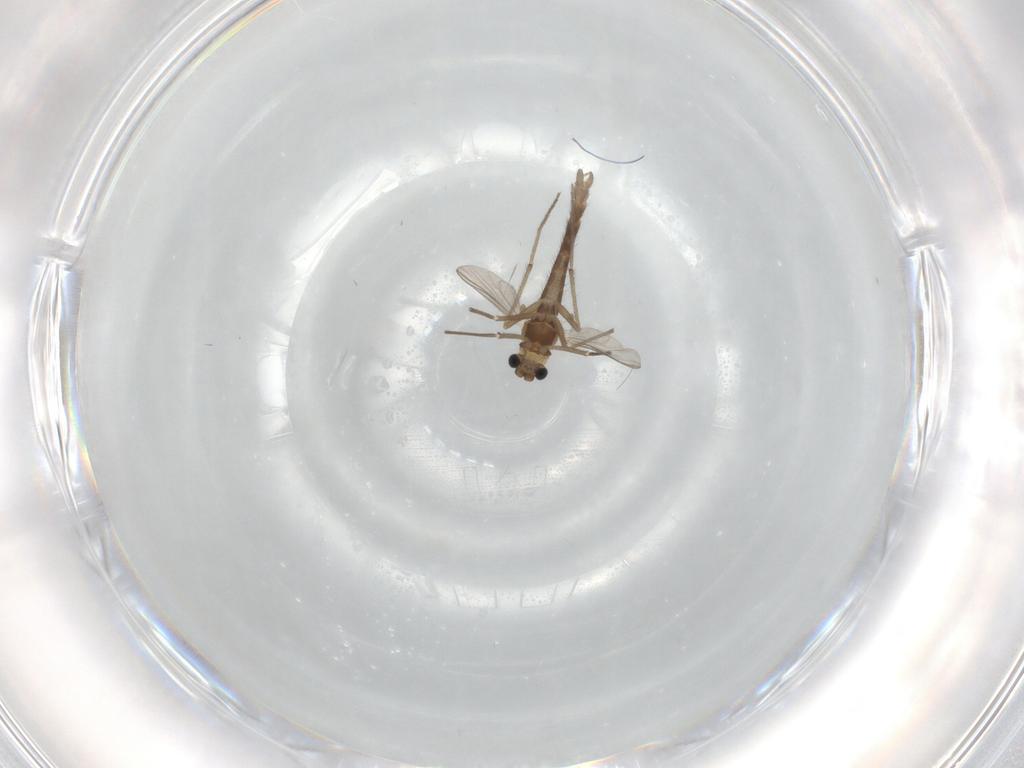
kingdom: Animalia
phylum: Arthropoda
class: Insecta
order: Diptera
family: Chironomidae
